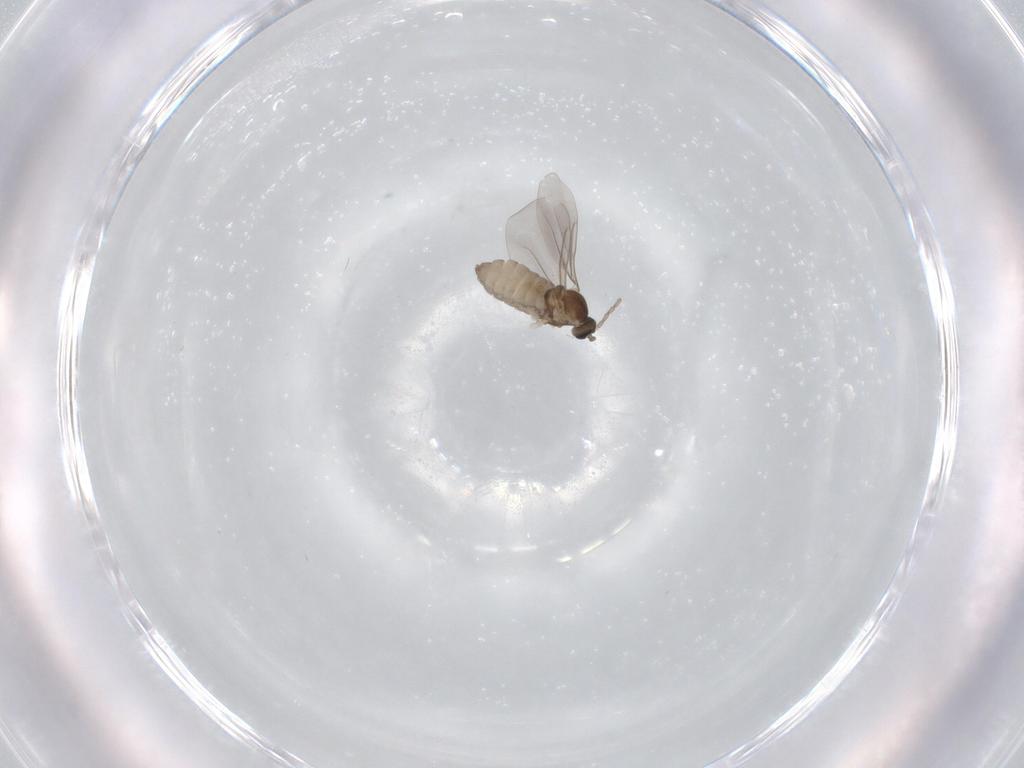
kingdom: Animalia
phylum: Arthropoda
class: Insecta
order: Diptera
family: Cecidomyiidae
